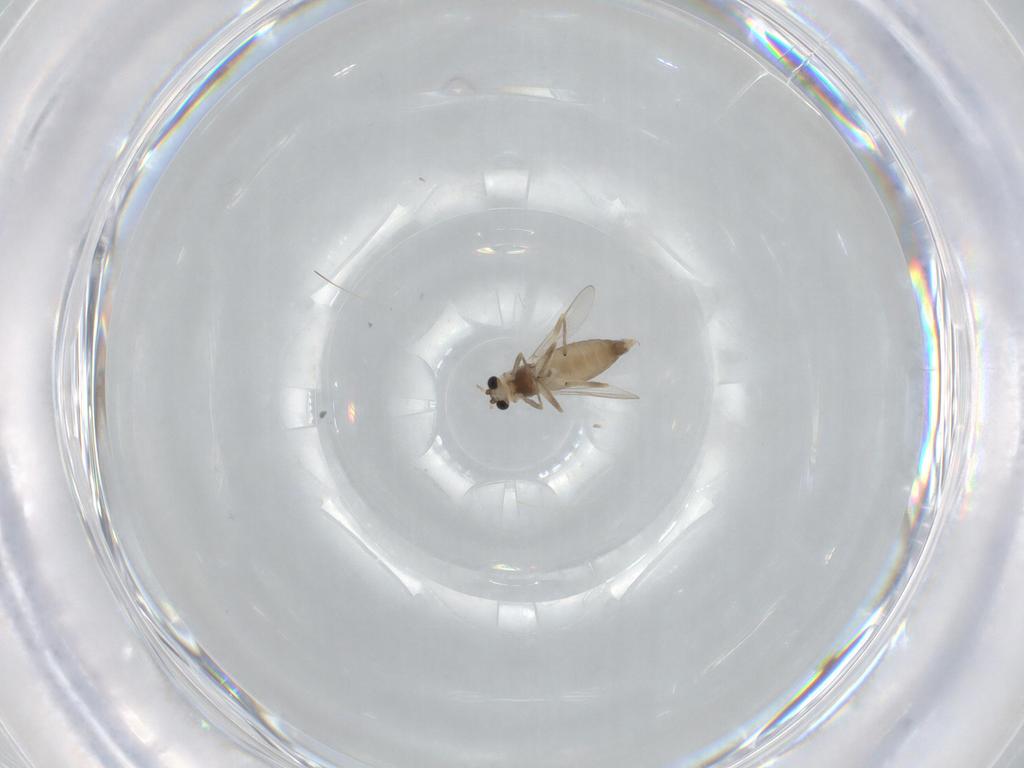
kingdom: Animalia
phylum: Arthropoda
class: Insecta
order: Diptera
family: Chironomidae
